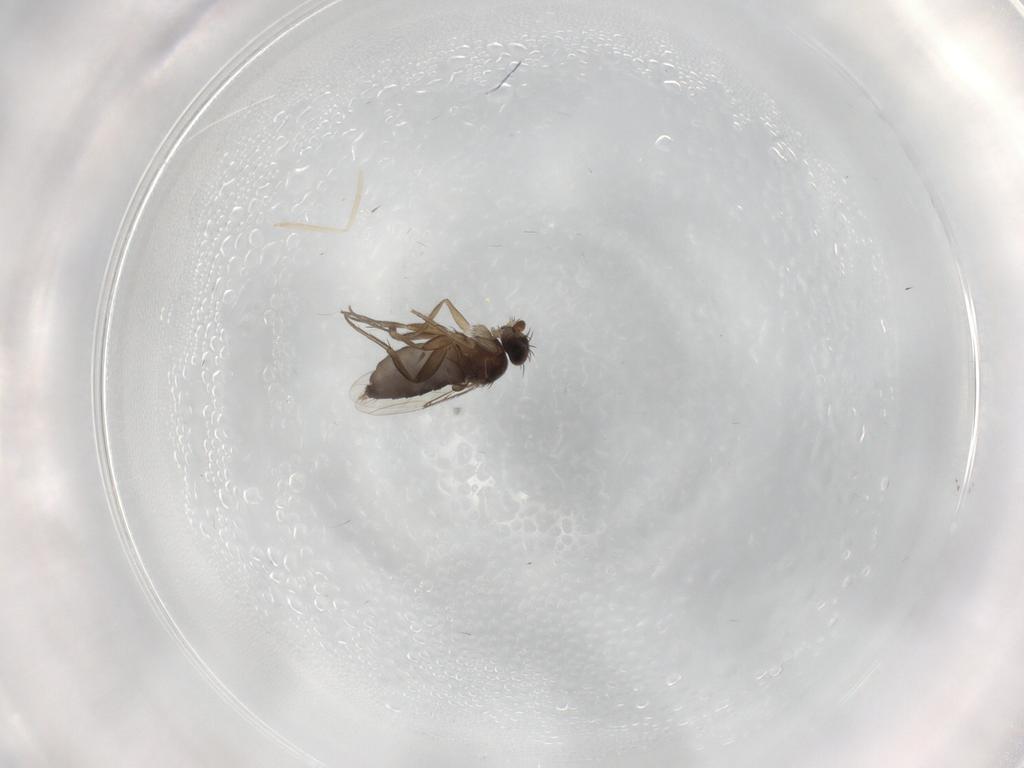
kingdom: Animalia
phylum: Arthropoda
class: Insecta
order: Diptera
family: Phoridae
